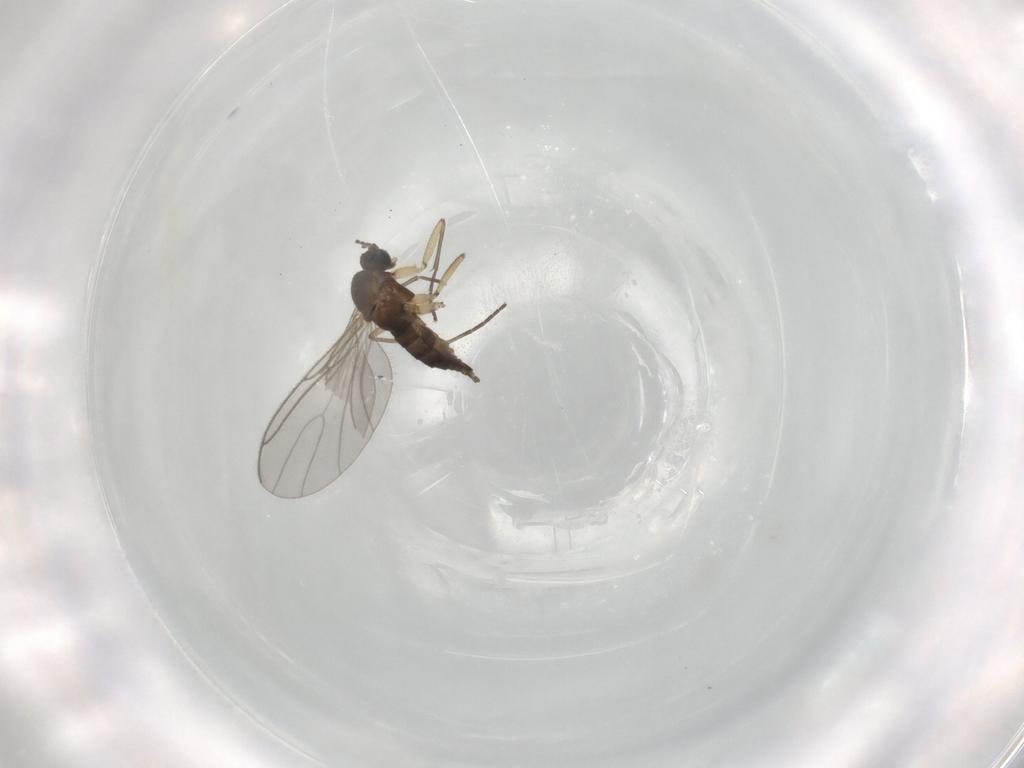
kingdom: Animalia
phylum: Arthropoda
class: Insecta
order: Diptera
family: Sciaridae
